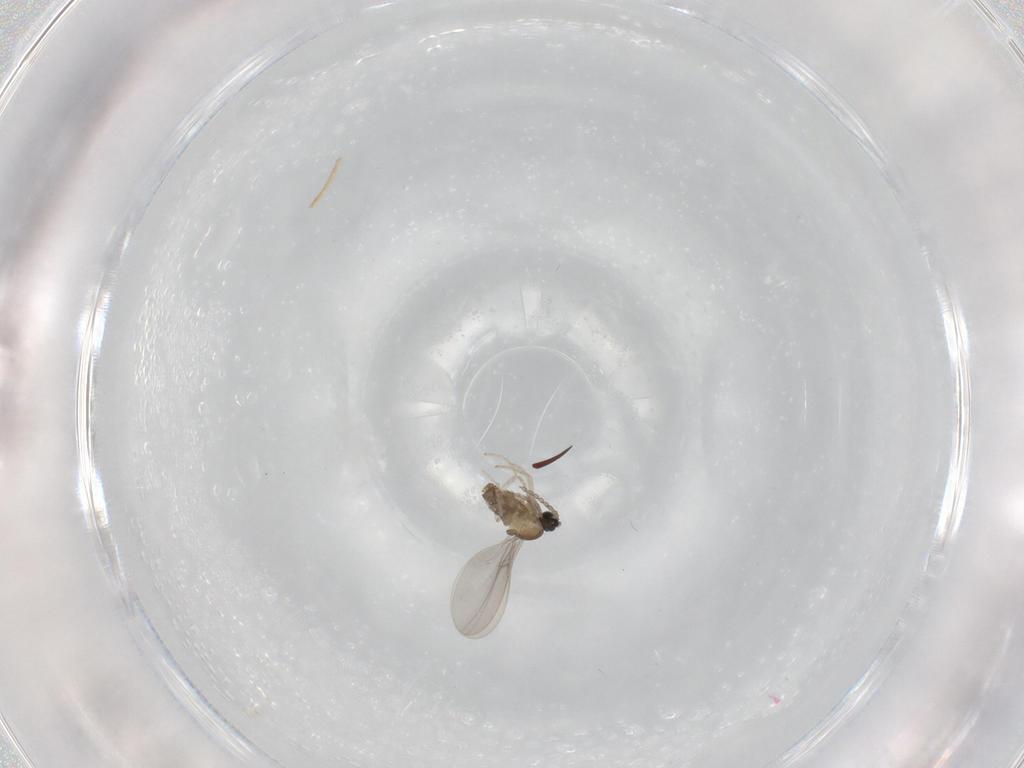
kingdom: Animalia
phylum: Arthropoda
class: Insecta
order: Diptera
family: Cecidomyiidae
